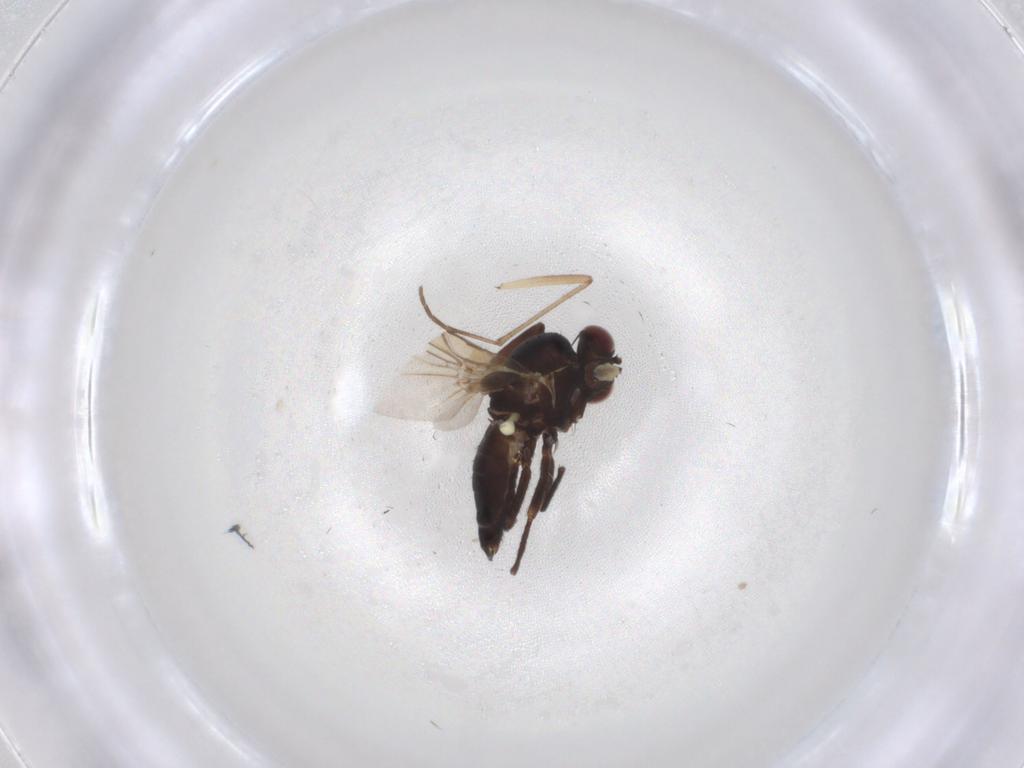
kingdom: Animalia
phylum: Arthropoda
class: Insecta
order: Diptera
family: Agromyzidae
